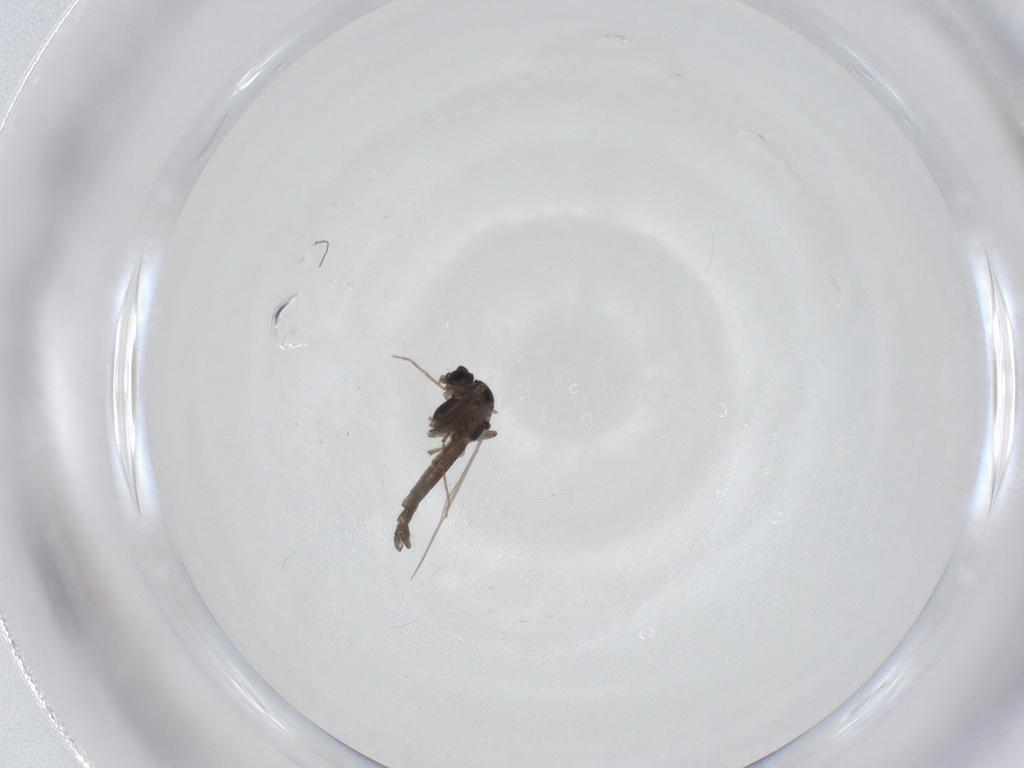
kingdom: Animalia
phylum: Arthropoda
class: Insecta
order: Diptera
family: Chironomidae
